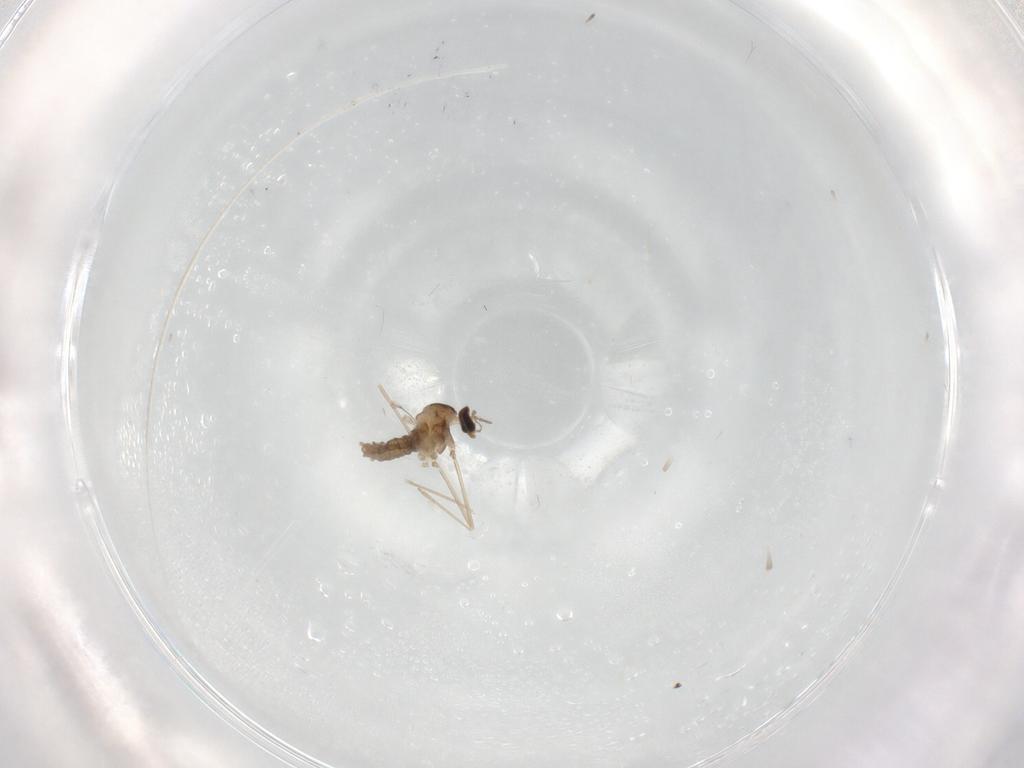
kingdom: Animalia
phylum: Arthropoda
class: Insecta
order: Diptera
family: Cecidomyiidae
